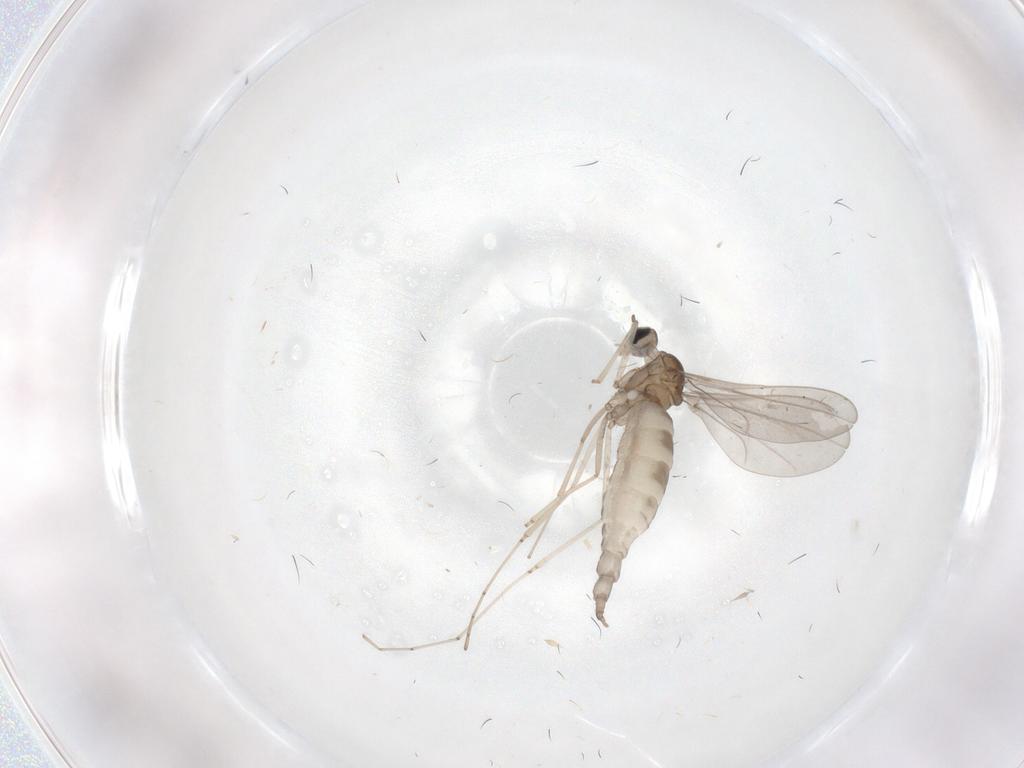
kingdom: Animalia
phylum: Arthropoda
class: Insecta
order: Diptera
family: Cecidomyiidae
